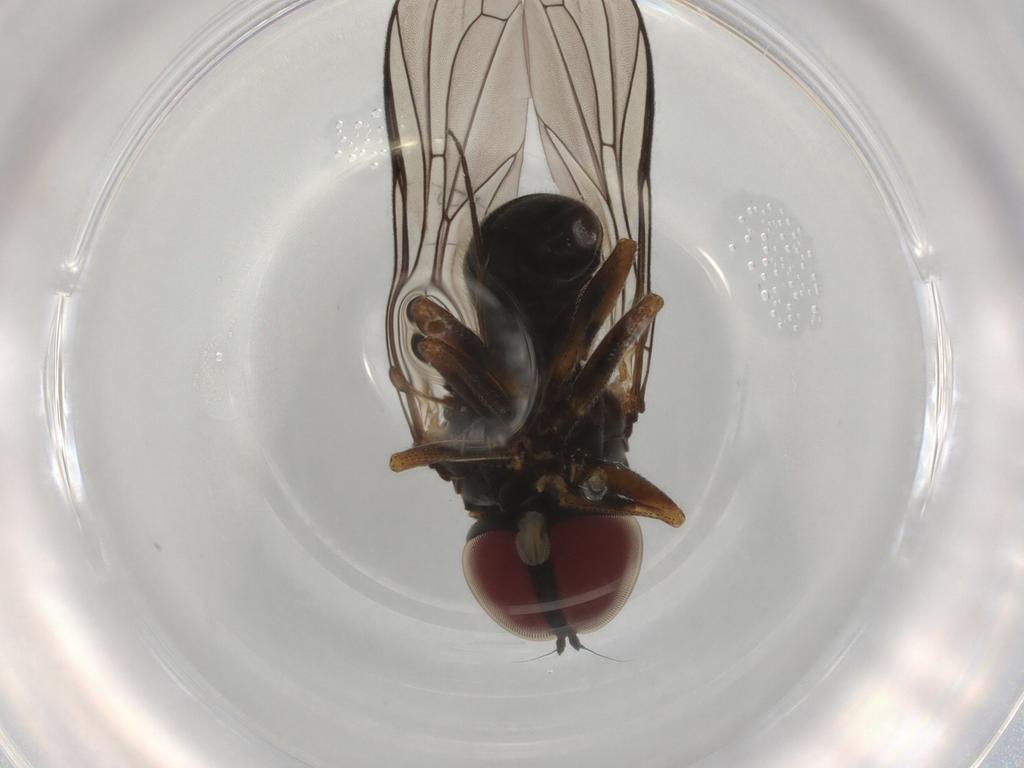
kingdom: Animalia
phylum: Arthropoda
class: Insecta
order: Diptera
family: Pipunculidae
